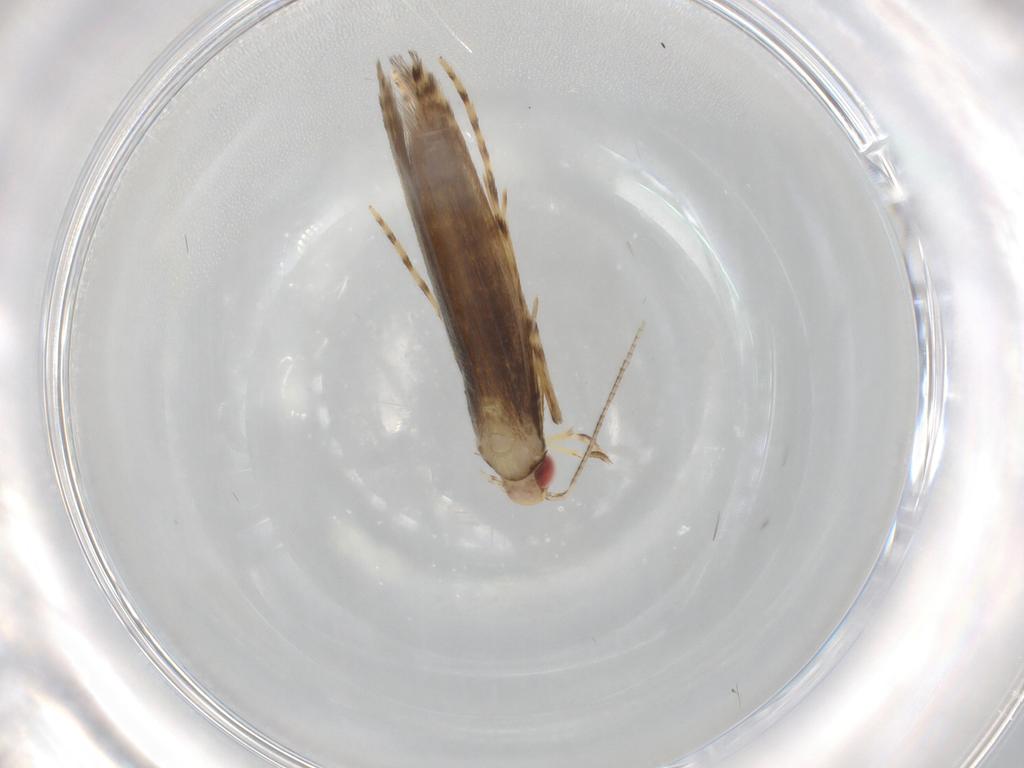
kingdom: Animalia
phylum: Arthropoda
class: Insecta
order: Lepidoptera
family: Gracillariidae
